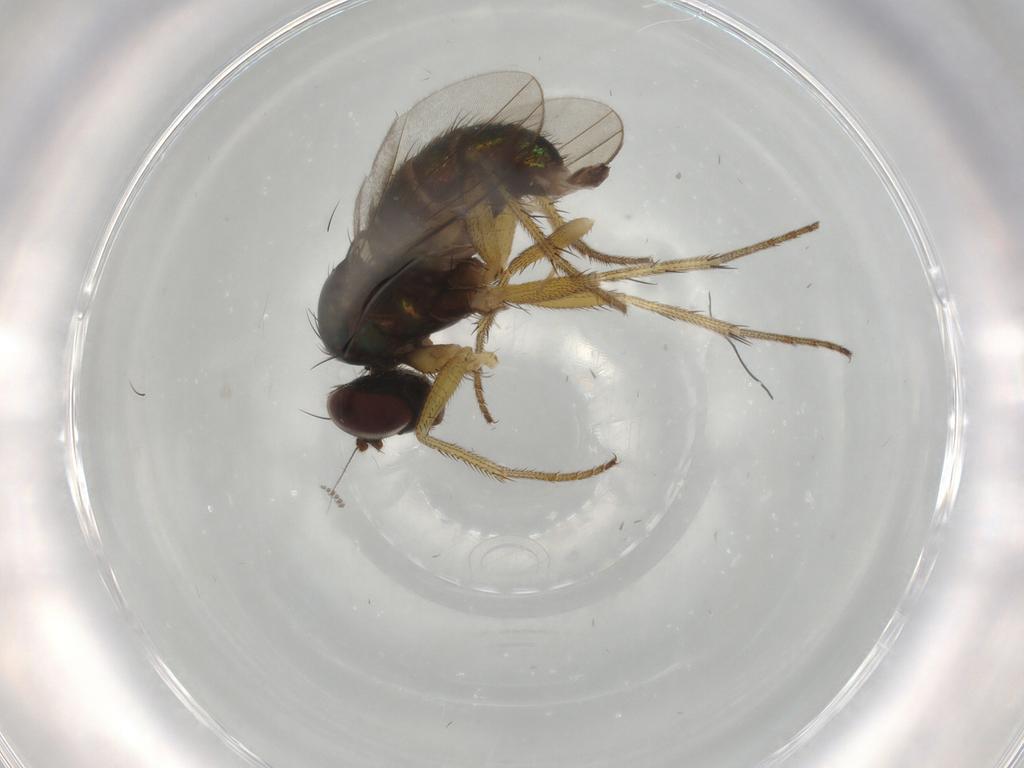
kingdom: Animalia
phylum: Arthropoda
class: Insecta
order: Diptera
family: Dolichopodidae
